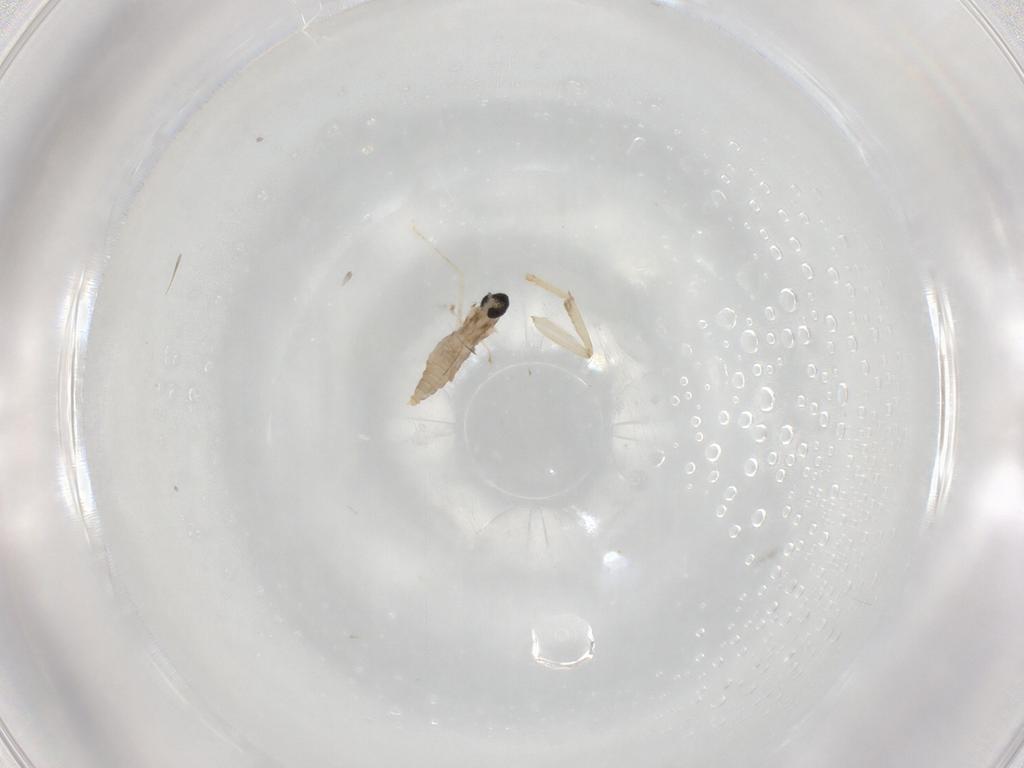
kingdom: Animalia
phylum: Arthropoda
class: Insecta
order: Diptera
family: Cecidomyiidae
